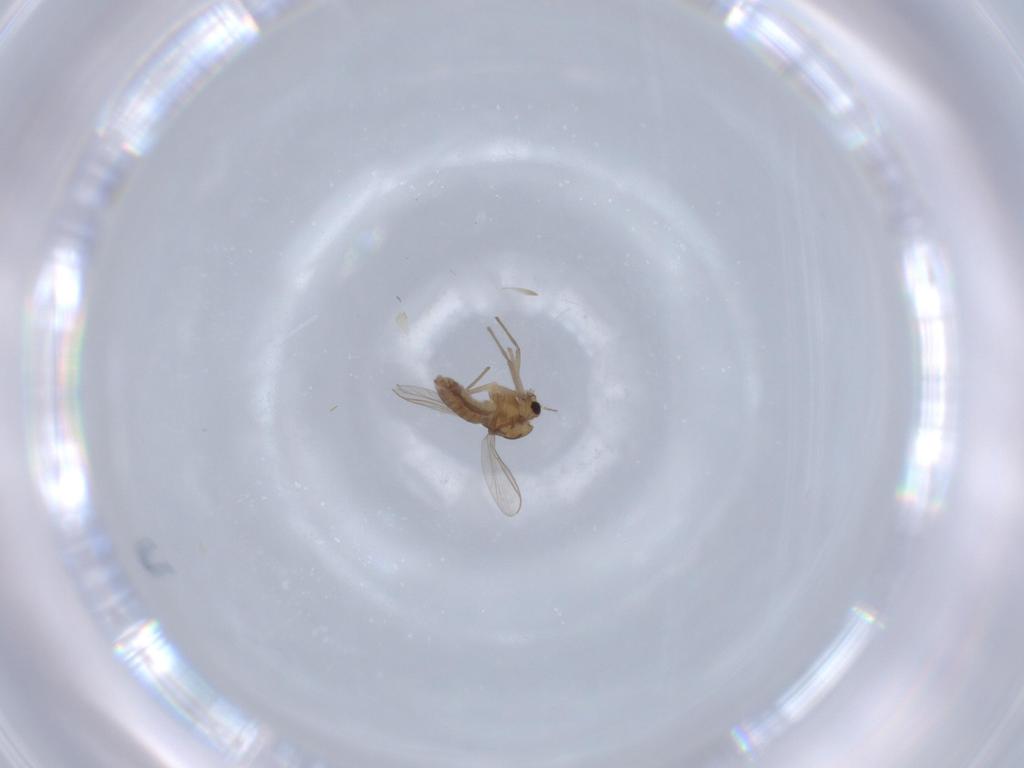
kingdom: Animalia
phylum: Arthropoda
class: Insecta
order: Diptera
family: Chironomidae
